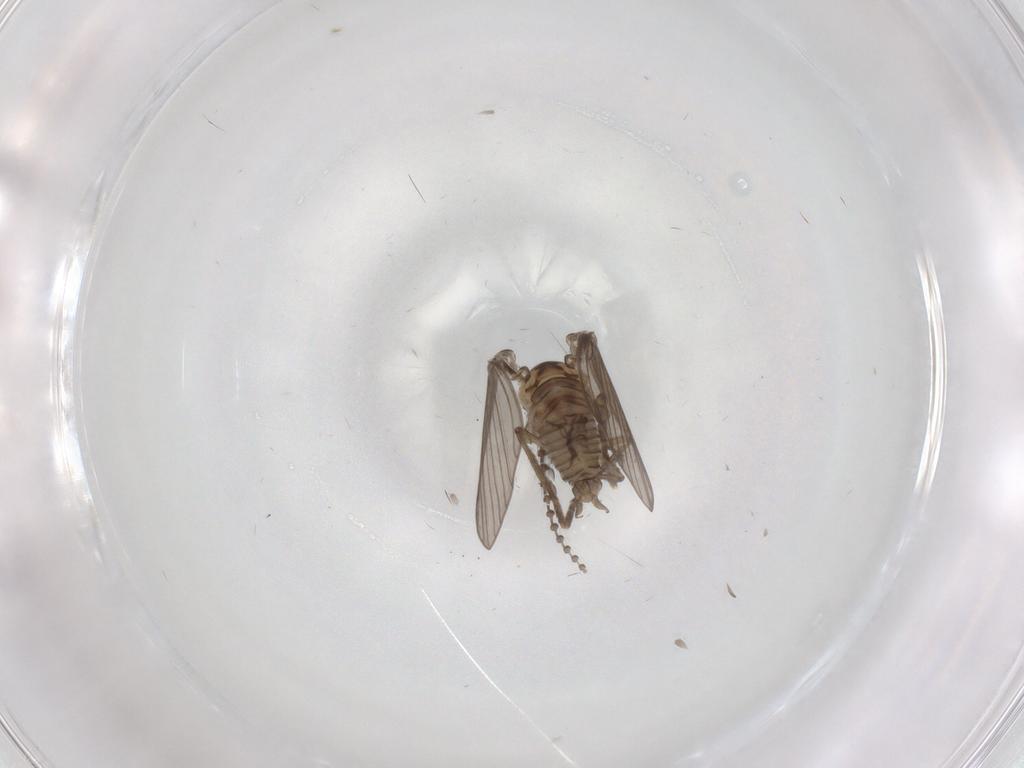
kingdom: Animalia
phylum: Arthropoda
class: Insecta
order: Diptera
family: Psychodidae
